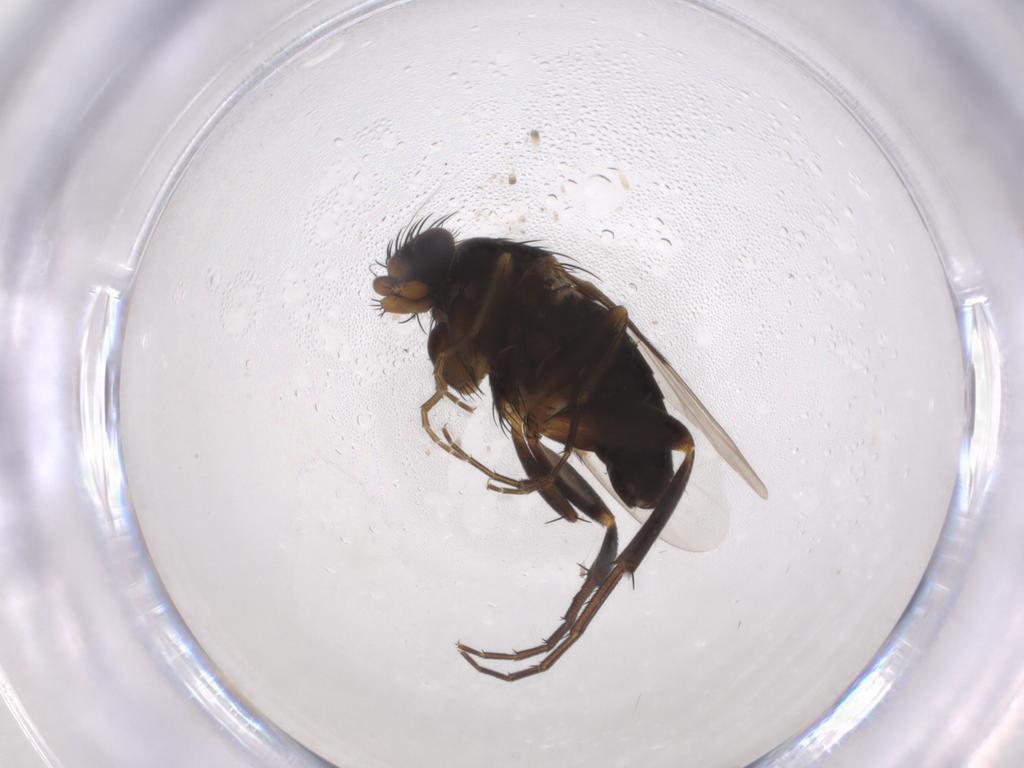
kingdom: Animalia
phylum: Arthropoda
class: Insecta
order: Diptera
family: Phoridae
